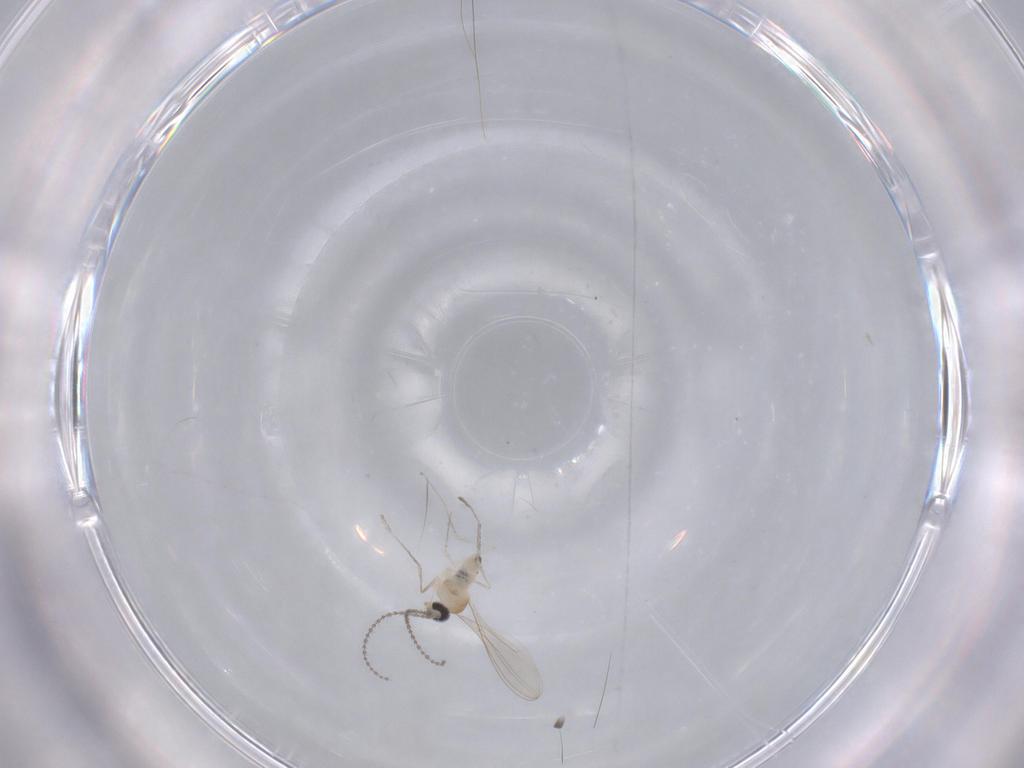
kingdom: Animalia
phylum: Arthropoda
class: Insecta
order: Diptera
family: Cecidomyiidae
